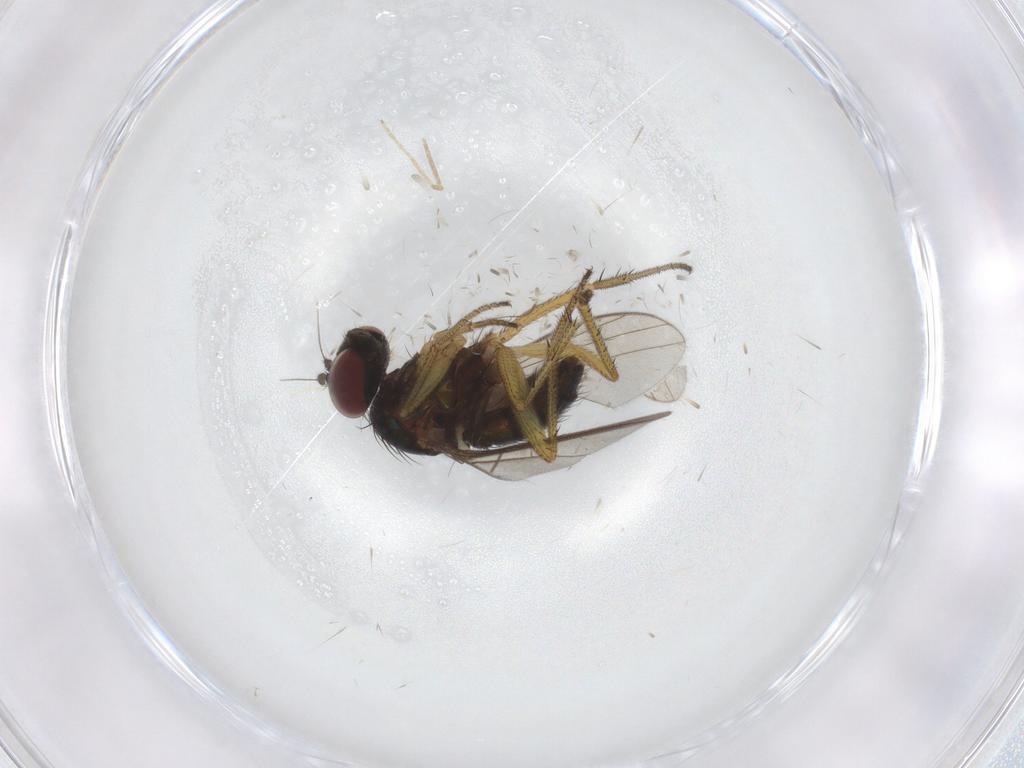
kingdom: Animalia
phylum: Arthropoda
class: Insecta
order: Diptera
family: Dolichopodidae
